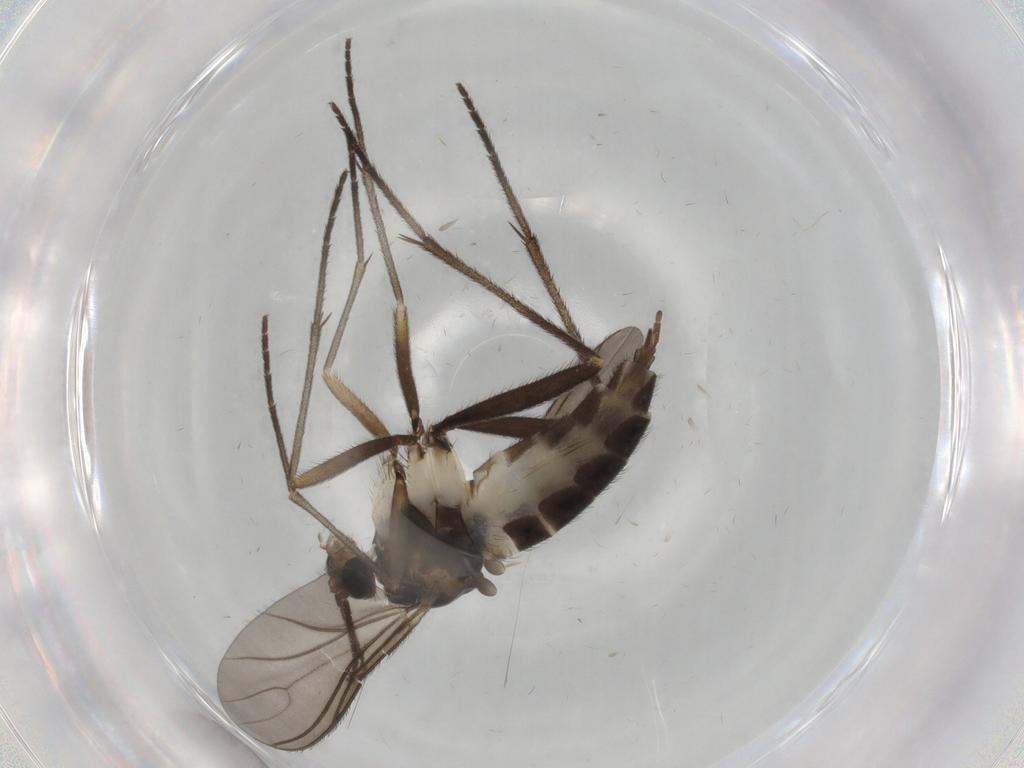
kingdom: Animalia
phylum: Arthropoda
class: Insecta
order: Diptera
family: Sciaridae
